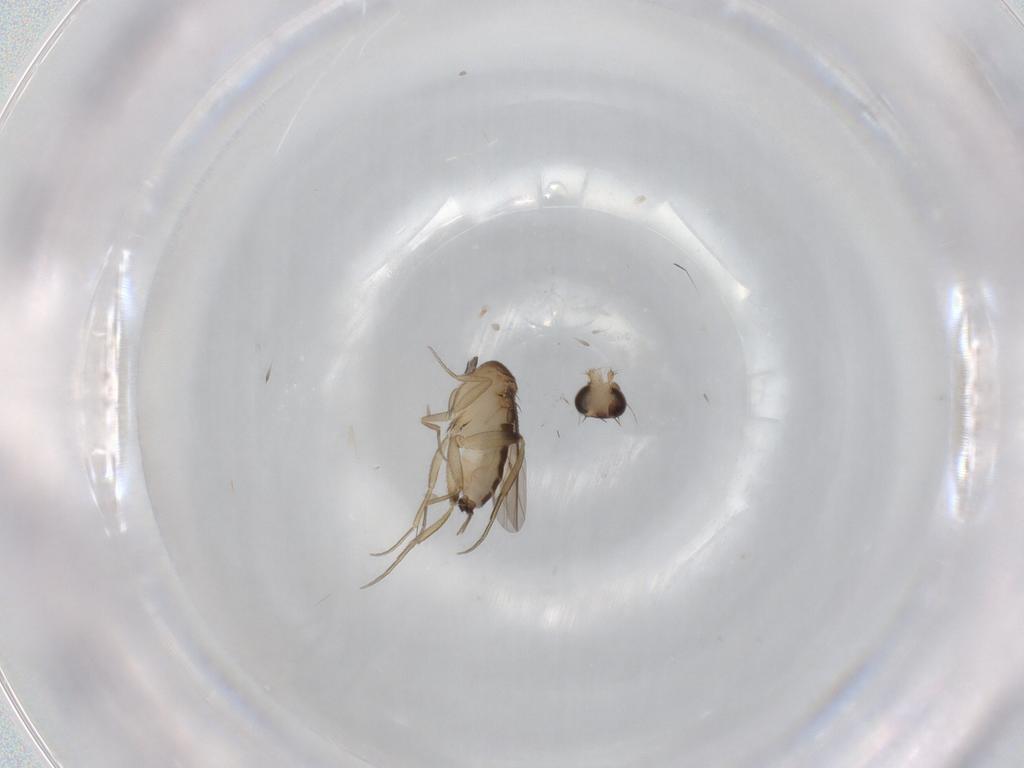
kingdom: Animalia
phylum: Arthropoda
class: Insecta
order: Diptera
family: Phoridae
